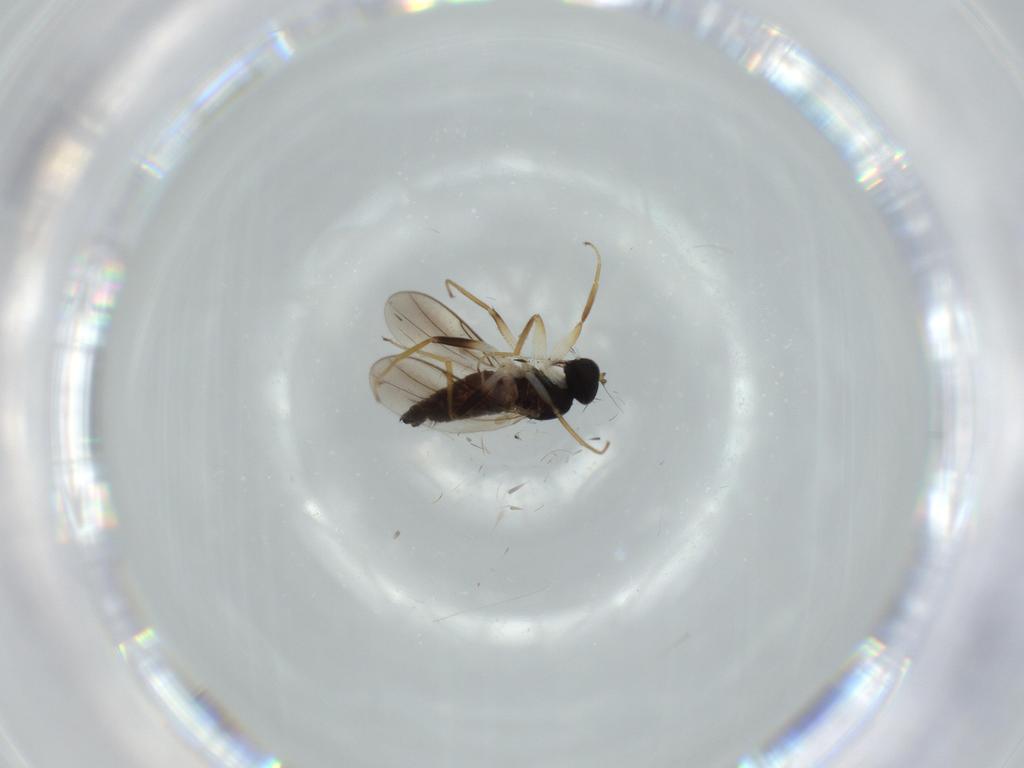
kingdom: Animalia
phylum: Arthropoda
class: Insecta
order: Diptera
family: Hybotidae
